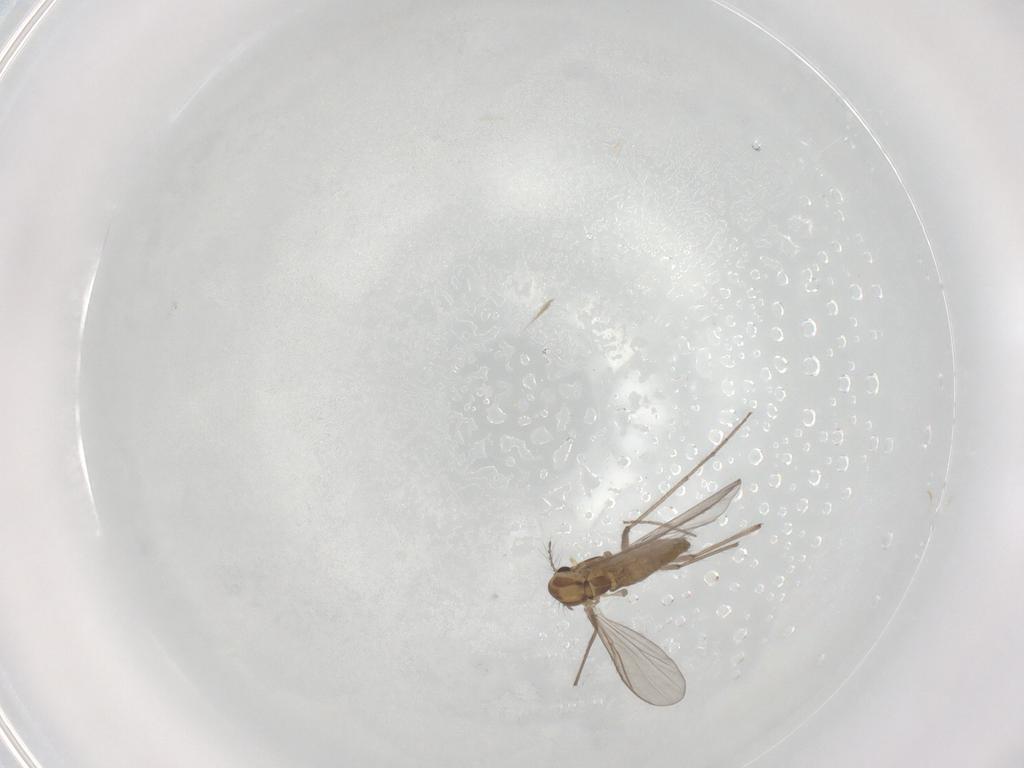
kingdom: Animalia
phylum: Arthropoda
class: Insecta
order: Diptera
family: Chironomidae
